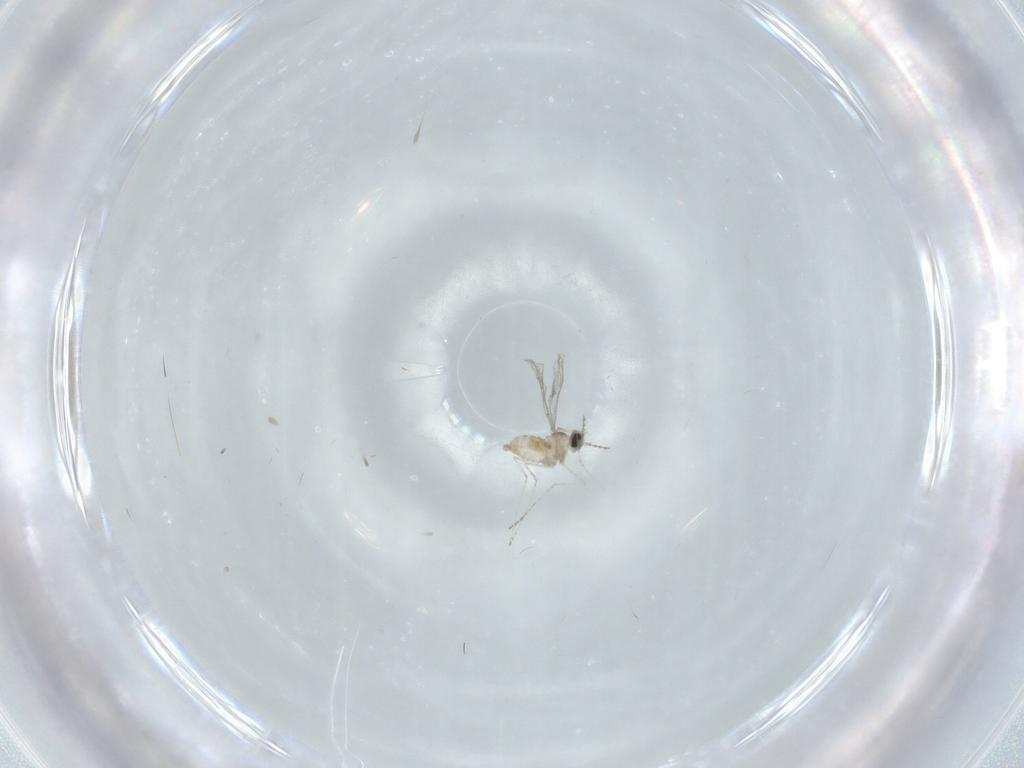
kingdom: Animalia
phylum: Arthropoda
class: Insecta
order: Diptera
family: Cecidomyiidae
